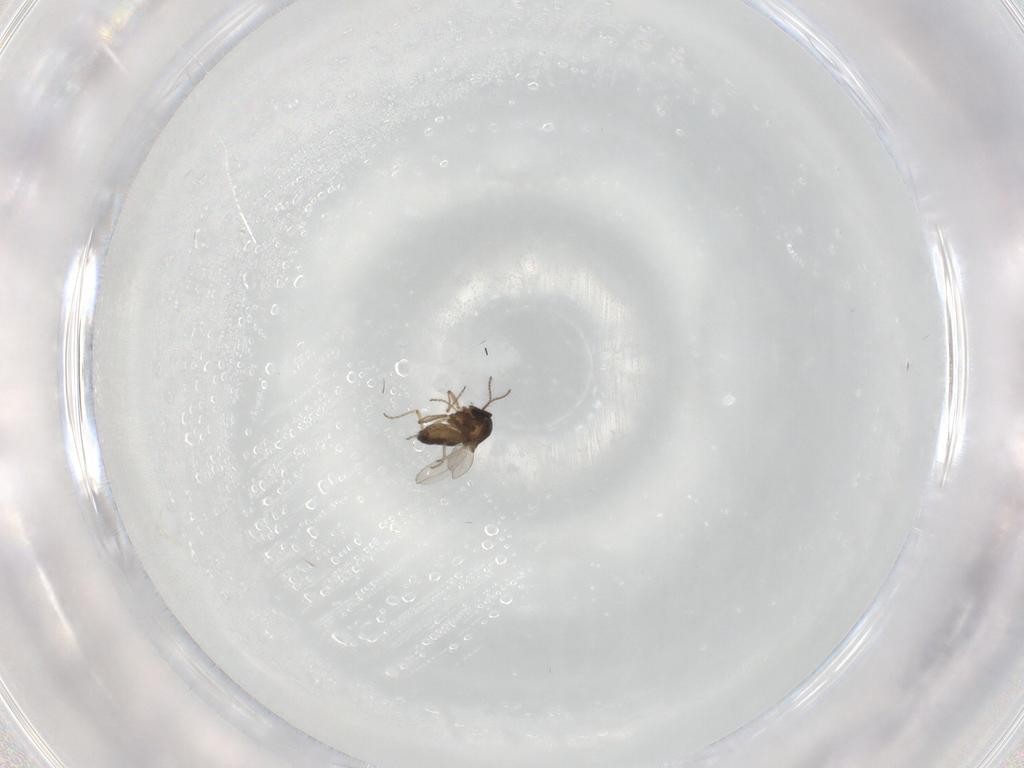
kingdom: Animalia
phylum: Arthropoda
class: Insecta
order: Diptera
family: Ceratopogonidae
